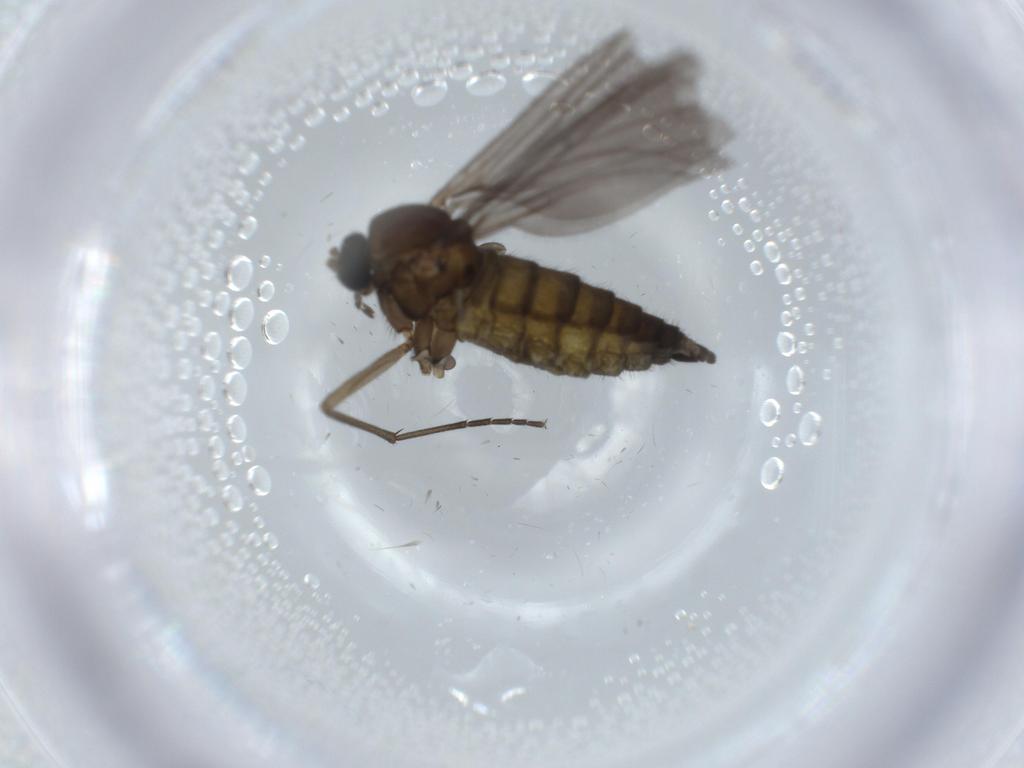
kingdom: Animalia
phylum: Arthropoda
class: Insecta
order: Diptera
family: Sciaridae
